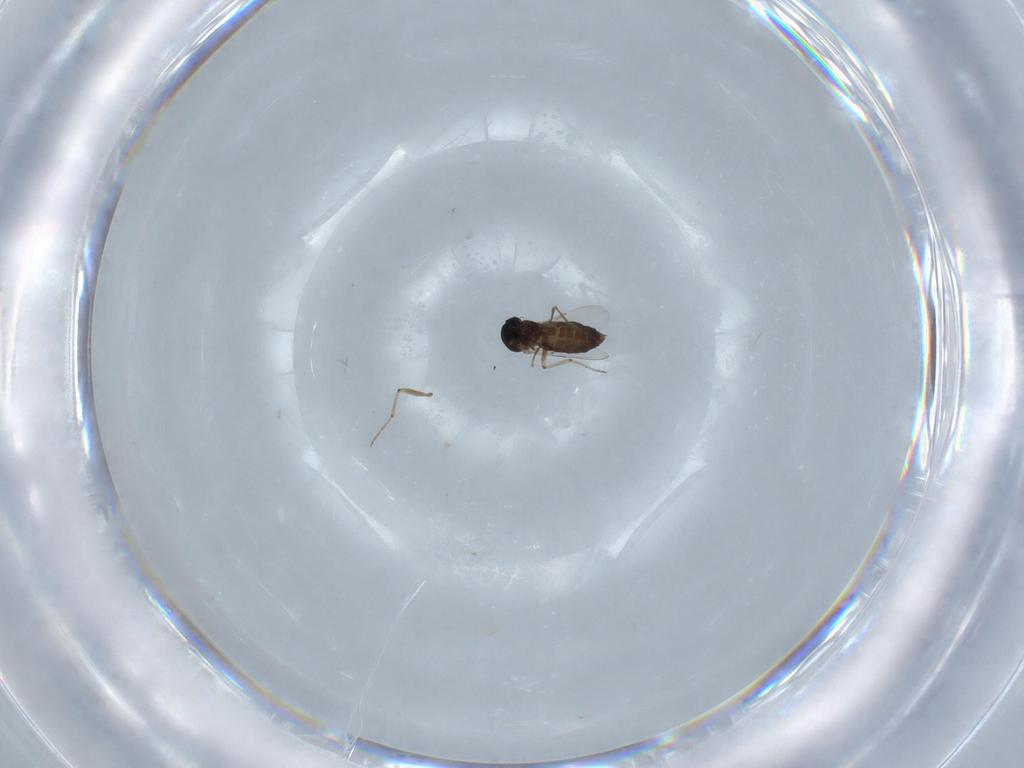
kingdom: Animalia
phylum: Arthropoda
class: Insecta
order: Diptera
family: Ceratopogonidae
